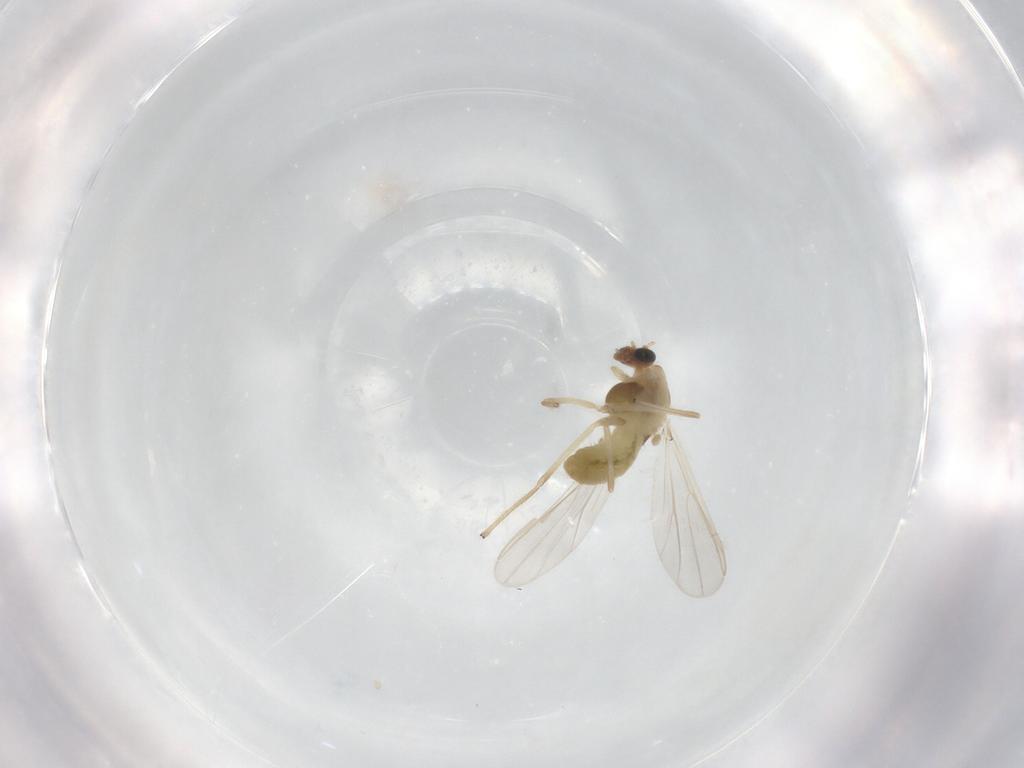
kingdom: Animalia
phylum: Arthropoda
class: Insecta
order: Diptera
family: Chironomidae
